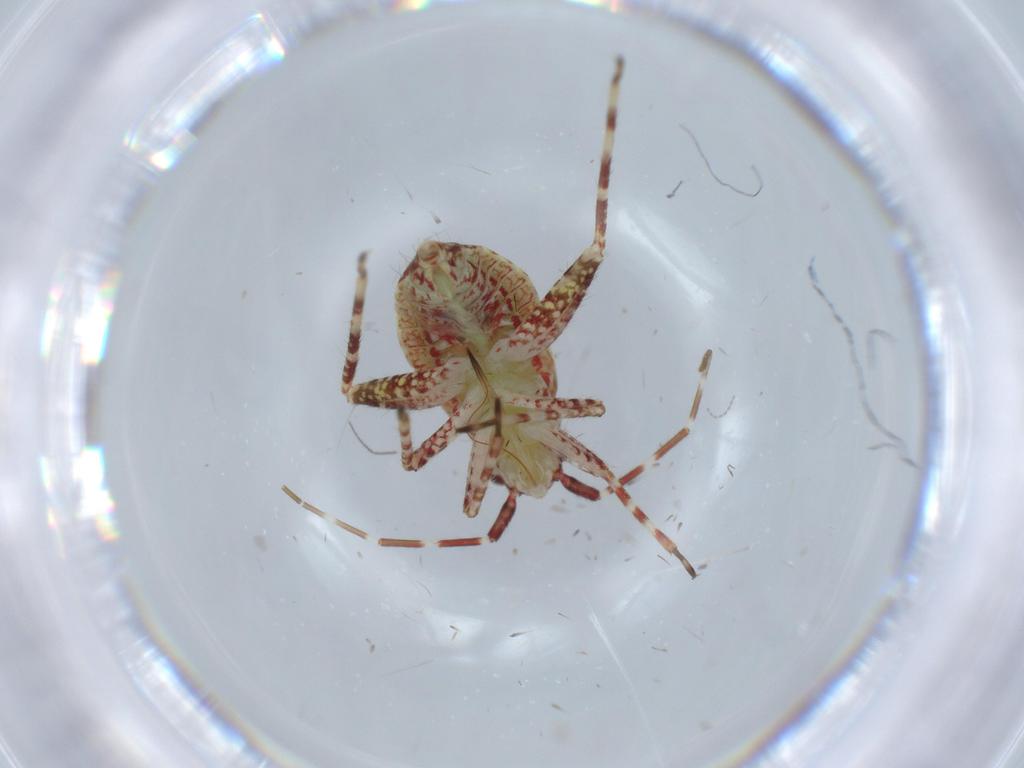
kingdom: Animalia
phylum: Arthropoda
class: Insecta
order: Hemiptera
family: Miridae
